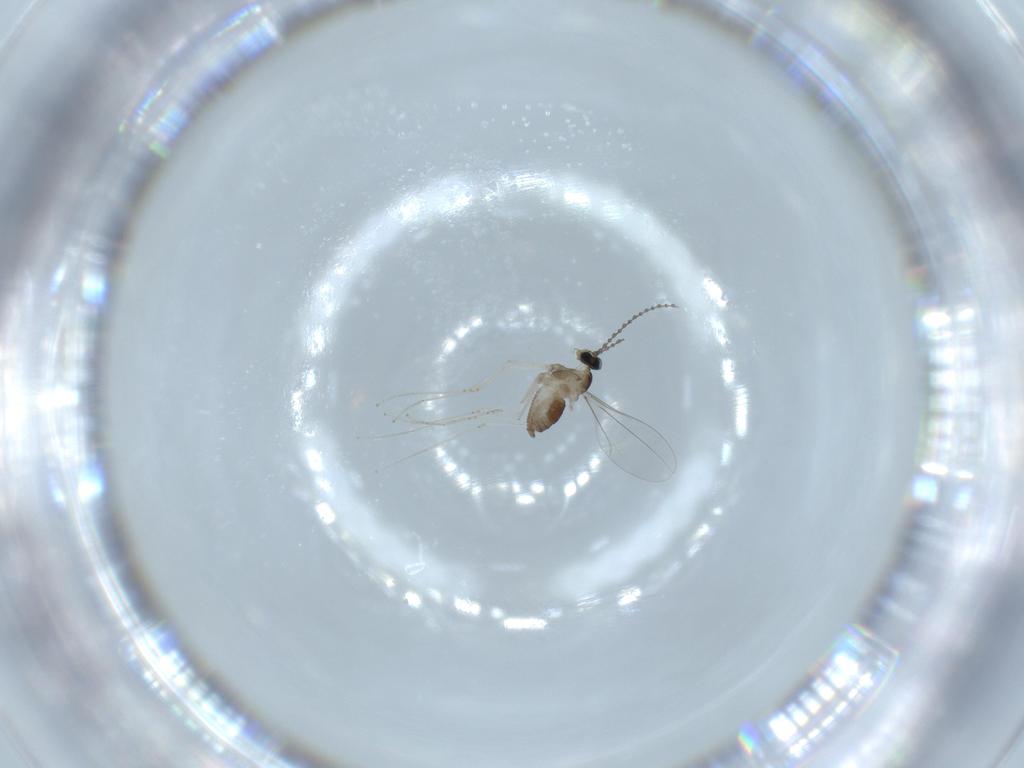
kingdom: Animalia
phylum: Arthropoda
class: Insecta
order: Diptera
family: Cecidomyiidae
